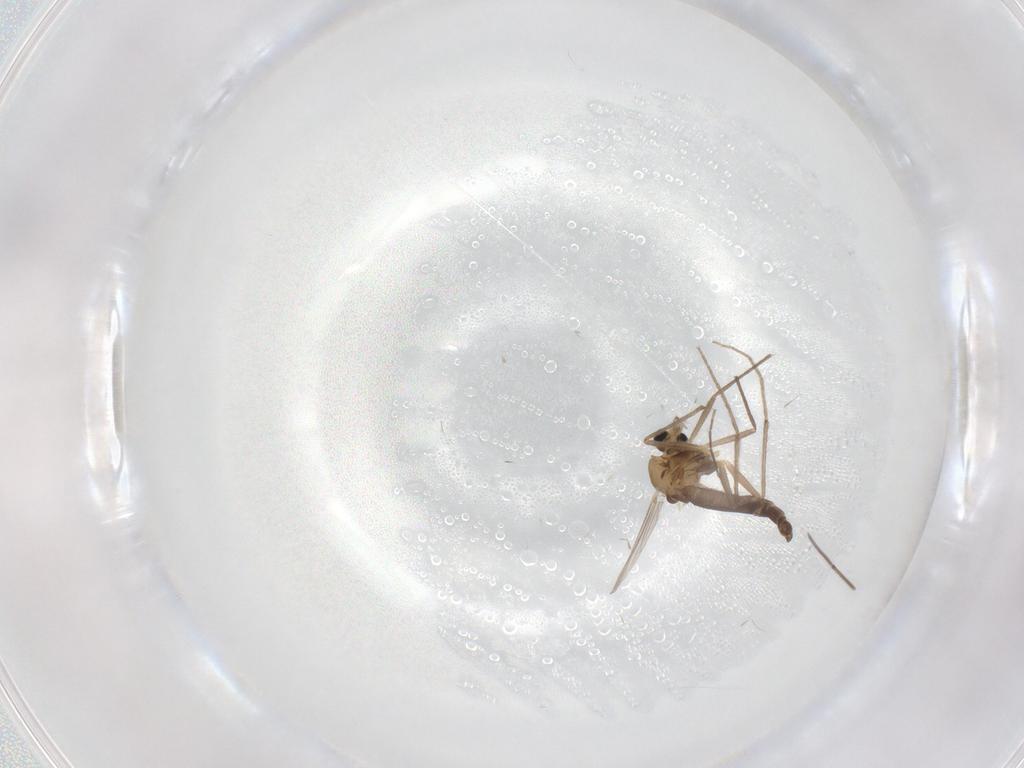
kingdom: Animalia
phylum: Arthropoda
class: Insecta
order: Diptera
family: Chironomidae
